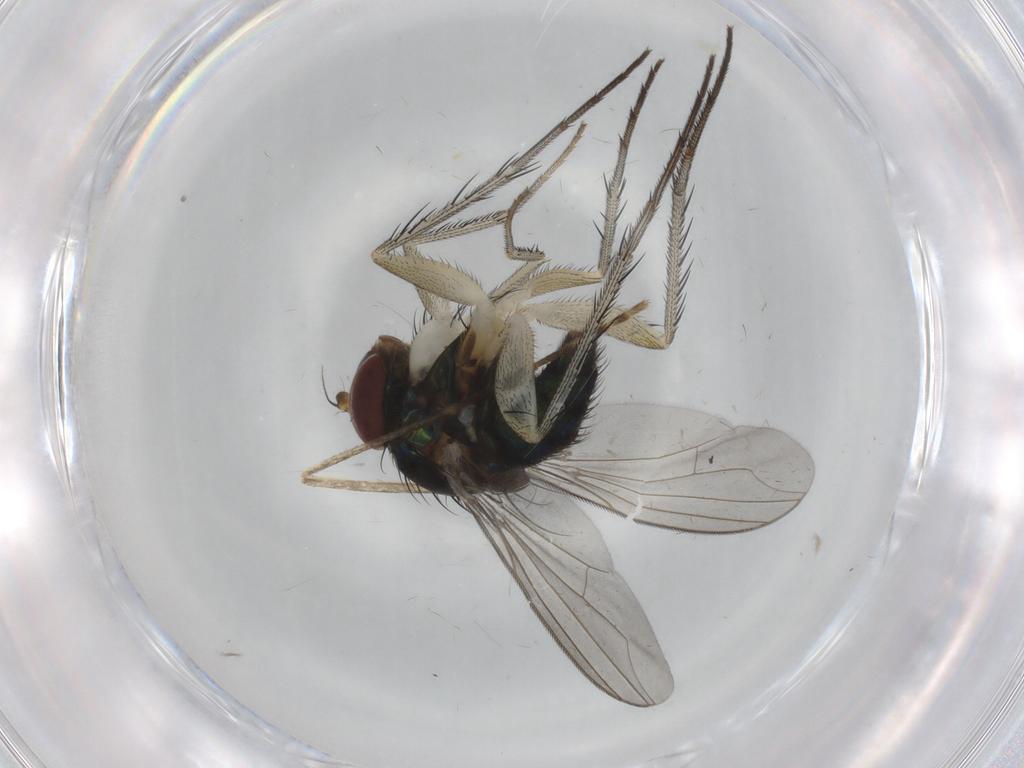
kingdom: Animalia
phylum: Arthropoda
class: Insecta
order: Diptera
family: Dolichopodidae
